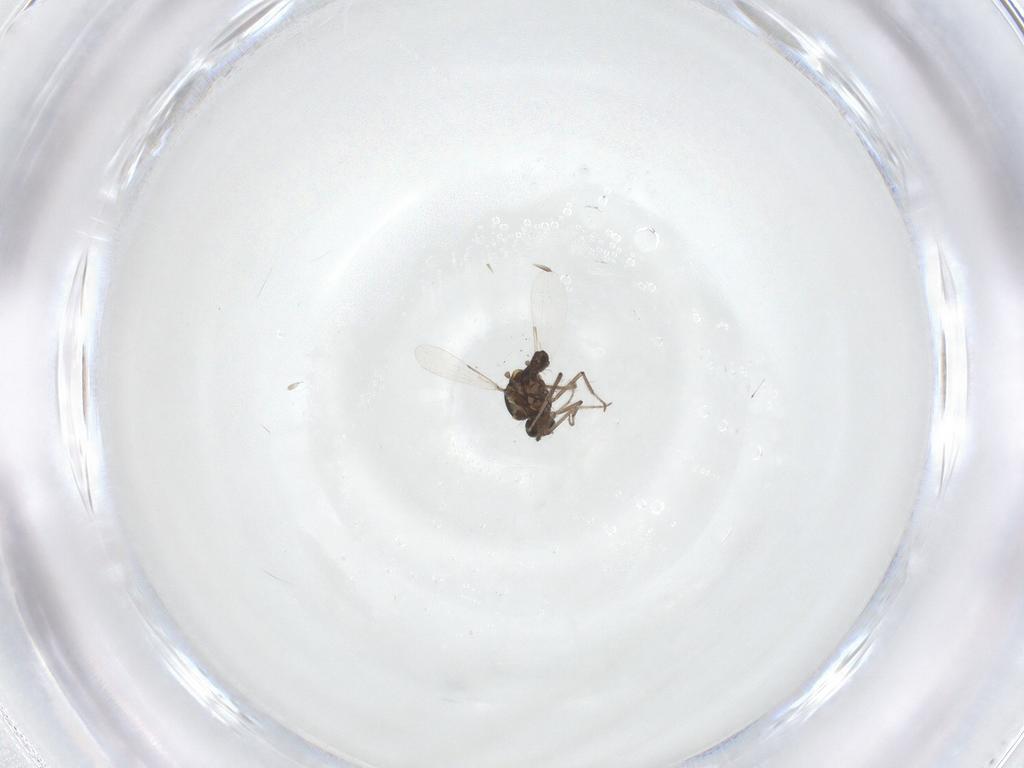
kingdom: Animalia
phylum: Arthropoda
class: Insecta
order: Diptera
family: Ceratopogonidae
